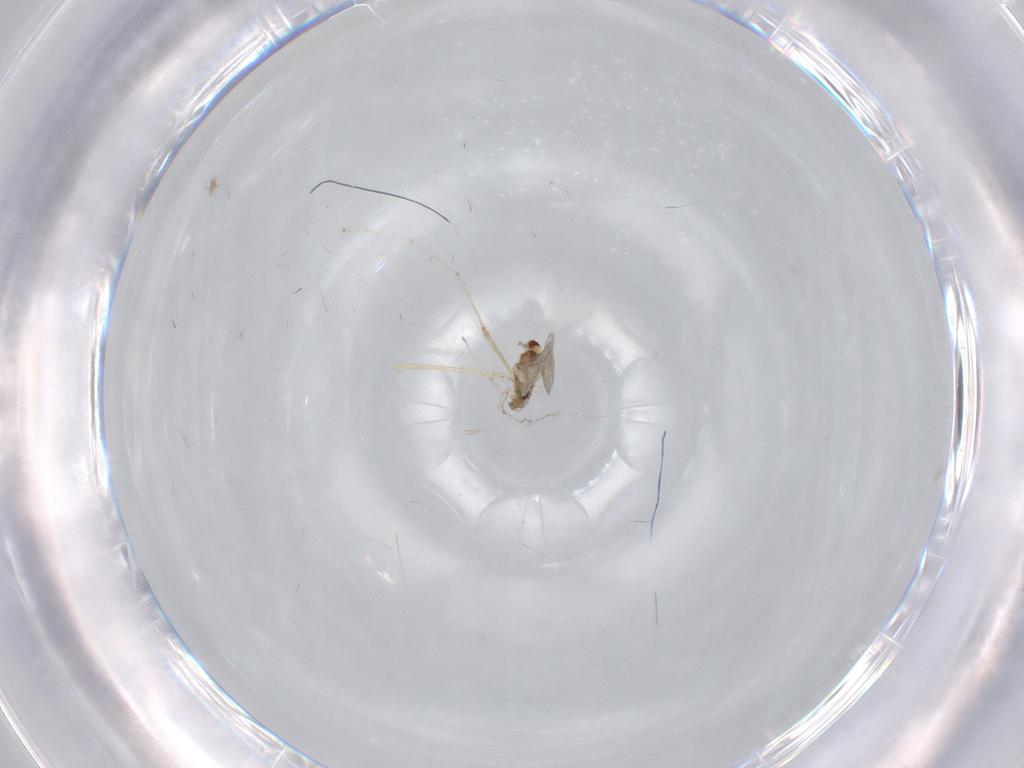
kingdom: Animalia
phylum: Arthropoda
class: Insecta
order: Diptera
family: Cecidomyiidae
